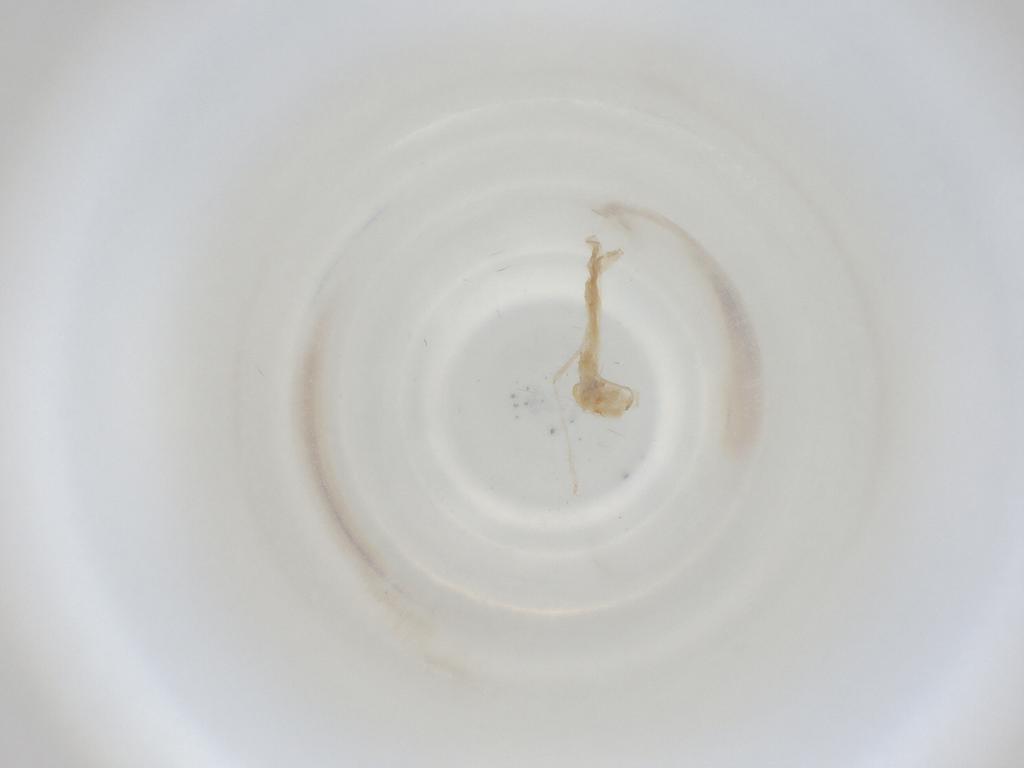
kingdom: Animalia
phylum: Arthropoda
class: Insecta
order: Diptera
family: Cecidomyiidae
